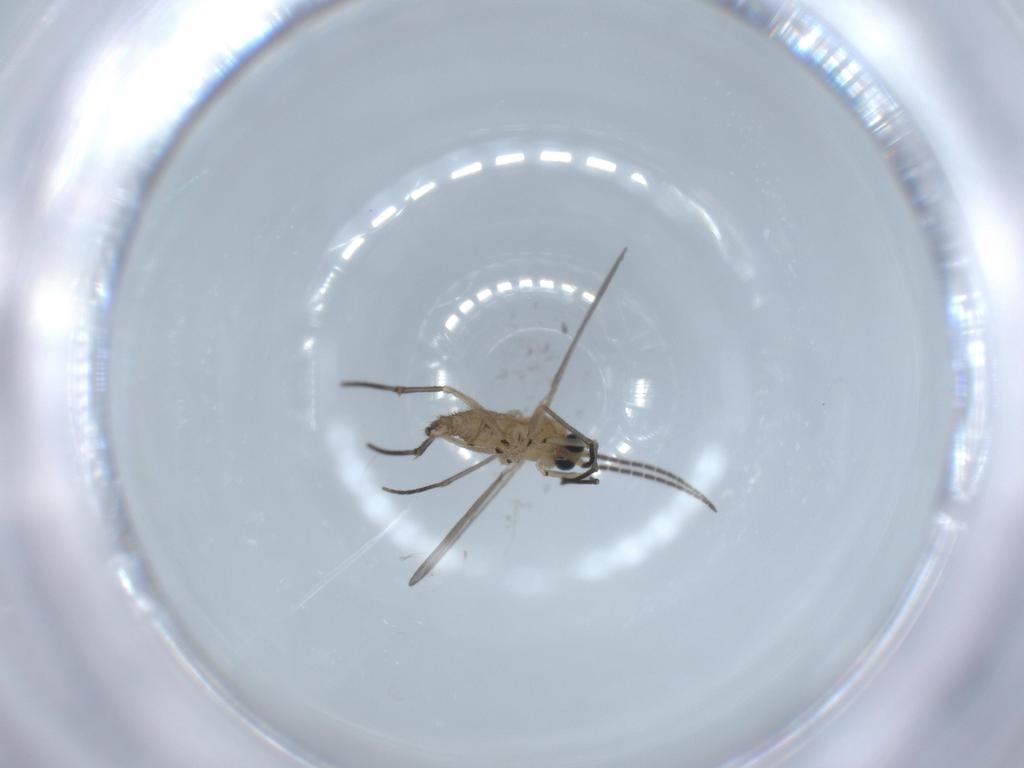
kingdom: Animalia
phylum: Arthropoda
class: Insecta
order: Diptera
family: Sciaridae
